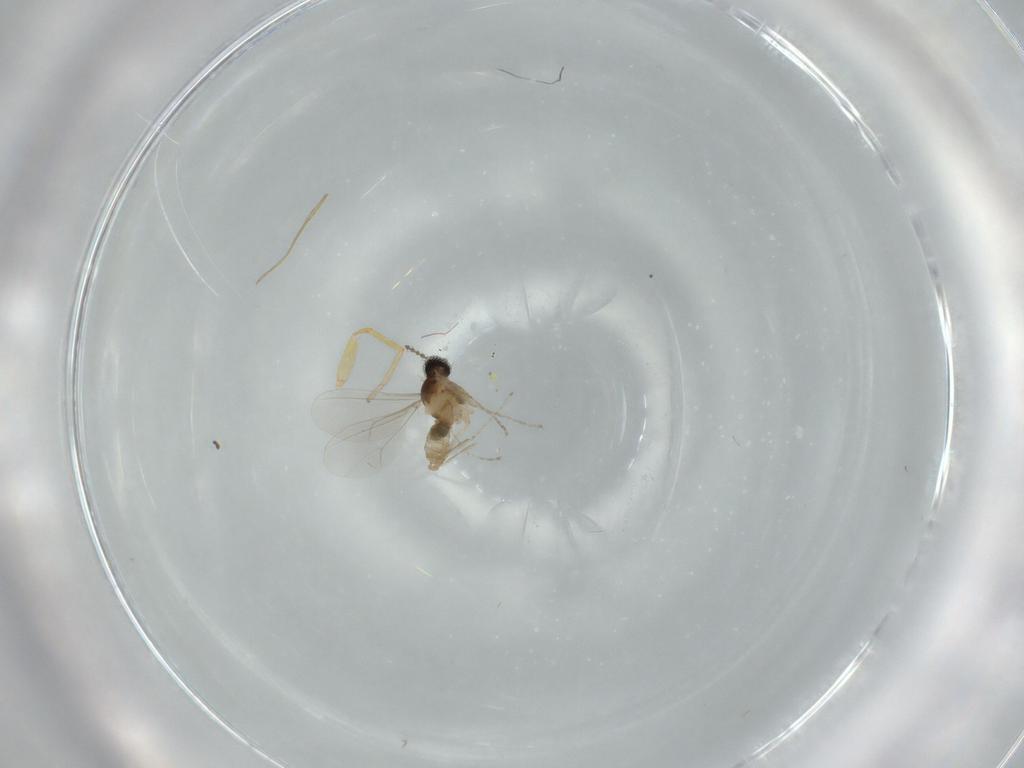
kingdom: Animalia
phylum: Arthropoda
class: Insecta
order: Diptera
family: Cecidomyiidae
